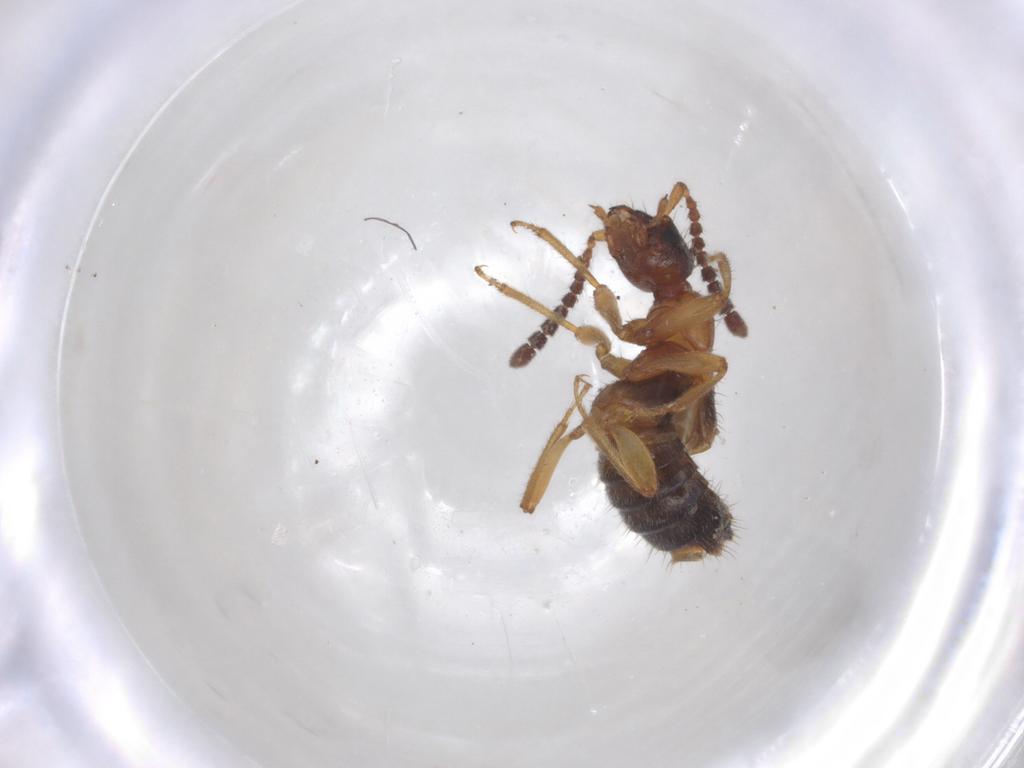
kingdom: Animalia
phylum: Arthropoda
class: Insecta
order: Coleoptera
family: Staphylinidae
